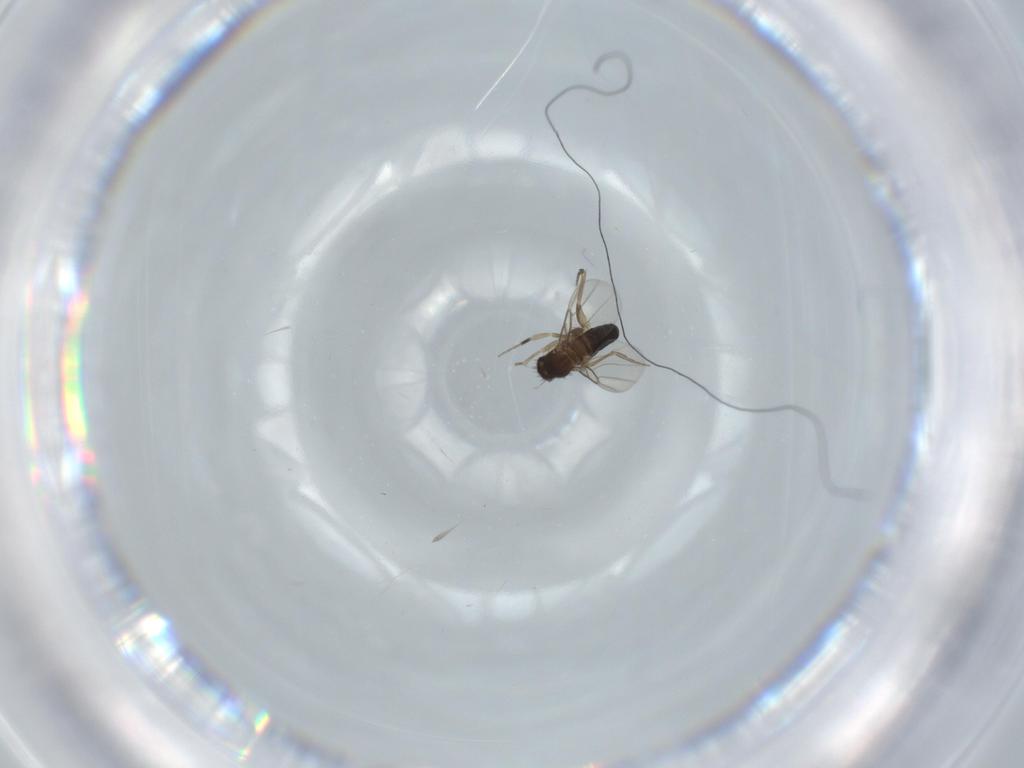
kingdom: Animalia
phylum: Arthropoda
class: Insecta
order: Diptera
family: Phoridae
